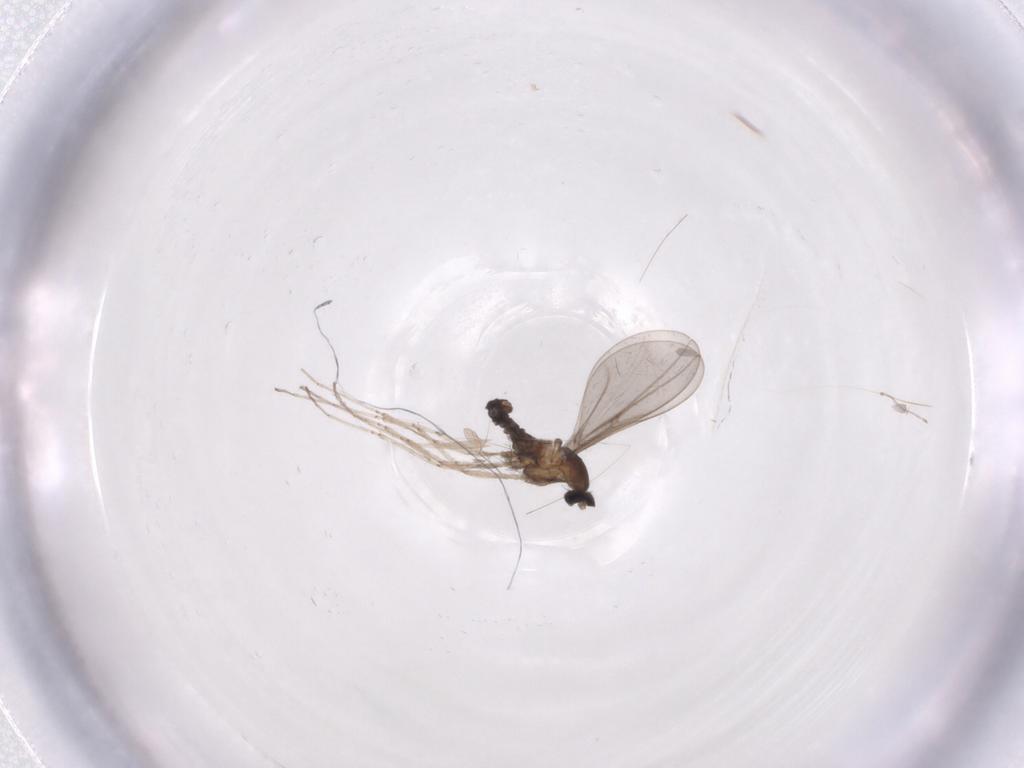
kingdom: Animalia
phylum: Arthropoda
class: Insecta
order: Diptera
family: Cecidomyiidae
